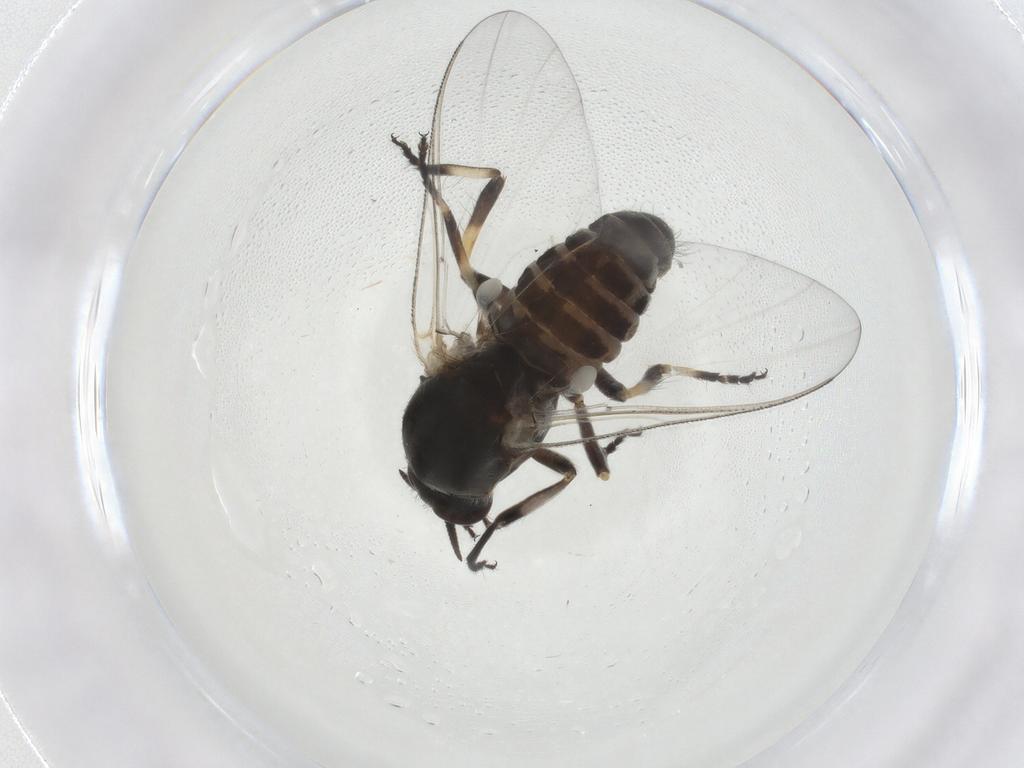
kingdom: Animalia
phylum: Arthropoda
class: Insecta
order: Diptera
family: Simuliidae
